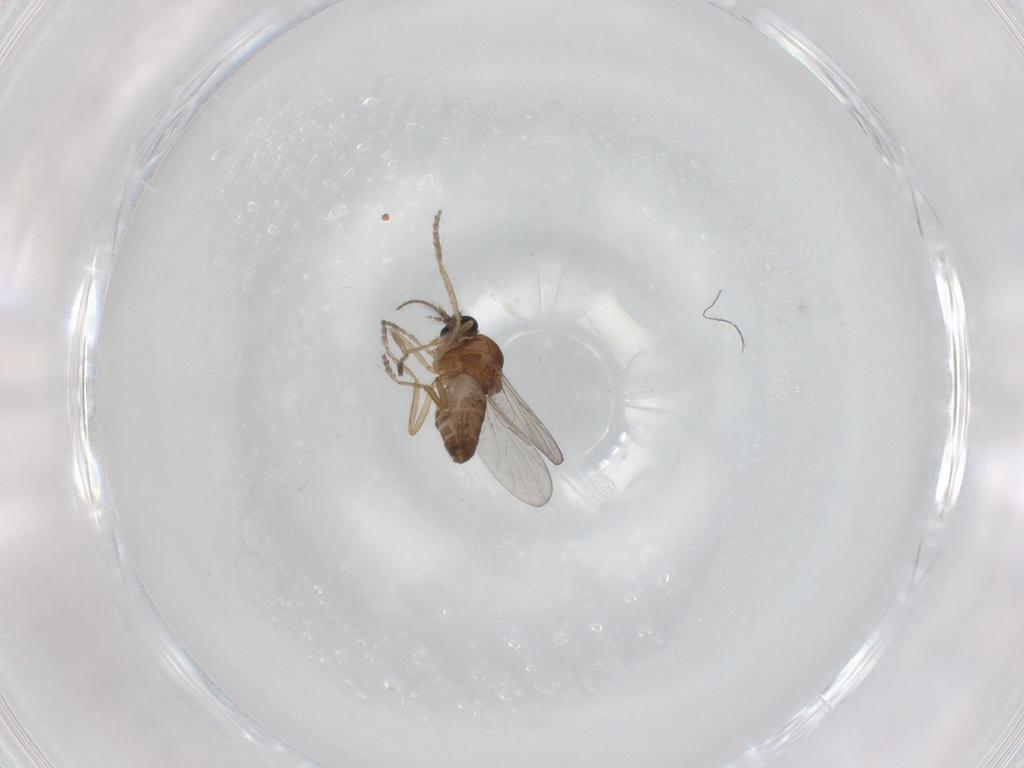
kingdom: Animalia
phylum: Arthropoda
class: Insecta
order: Diptera
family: Ceratopogonidae
